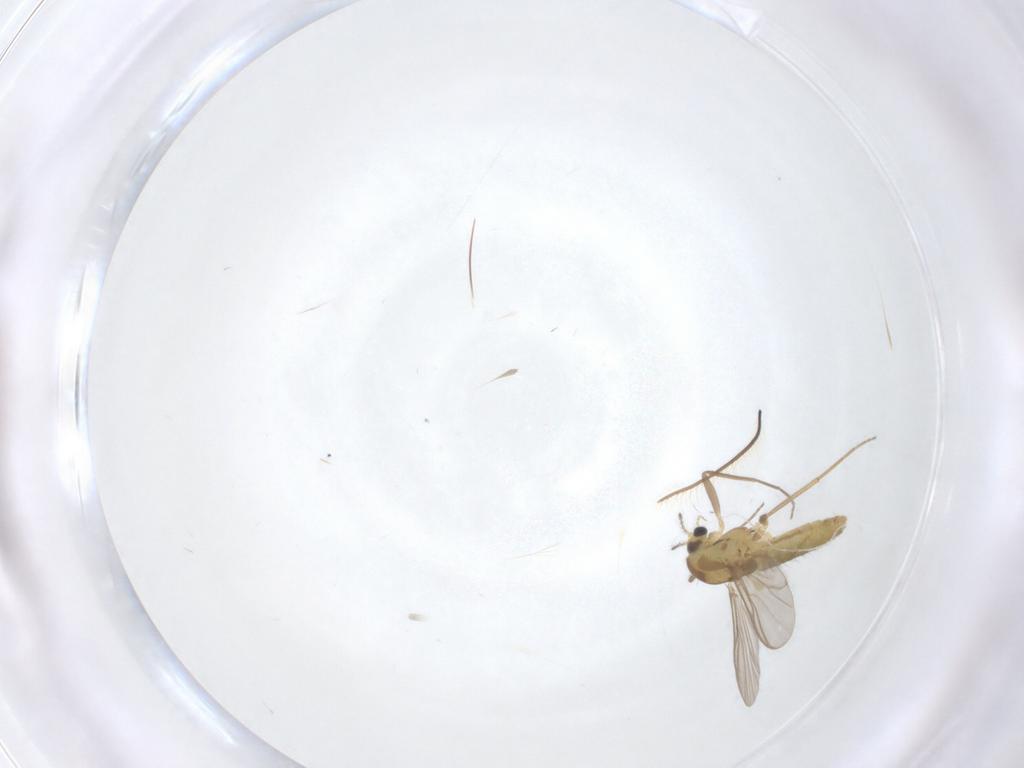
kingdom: Animalia
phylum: Arthropoda
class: Insecta
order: Diptera
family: Chironomidae
